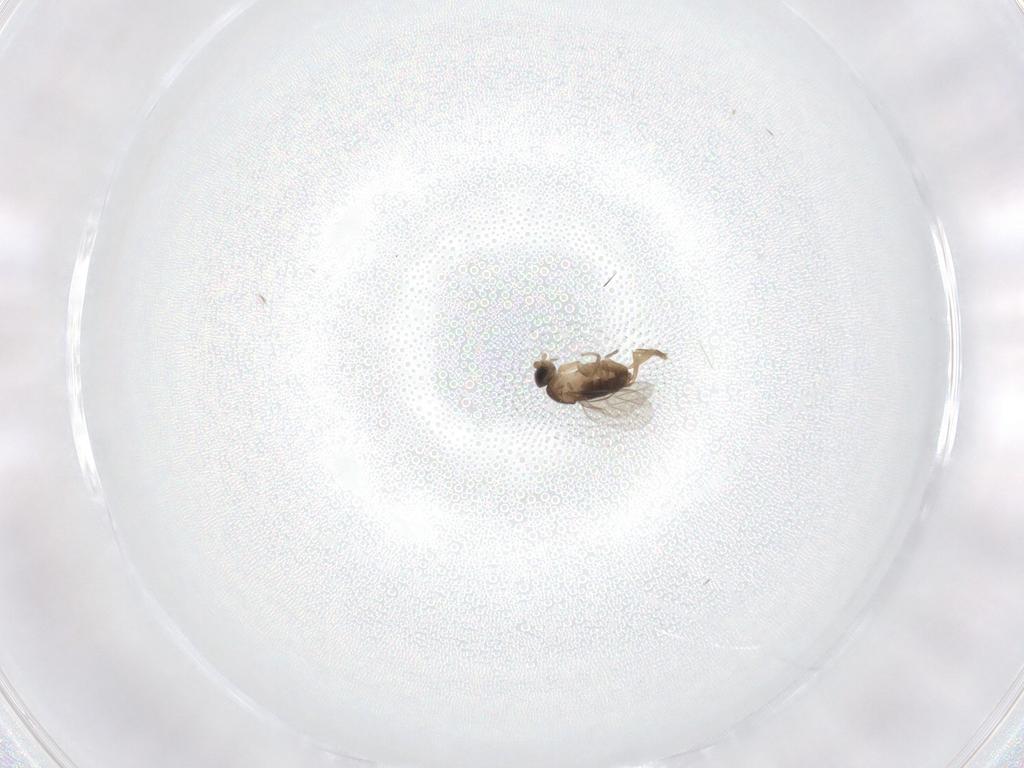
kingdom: Animalia
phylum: Arthropoda
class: Insecta
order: Diptera
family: Phoridae
